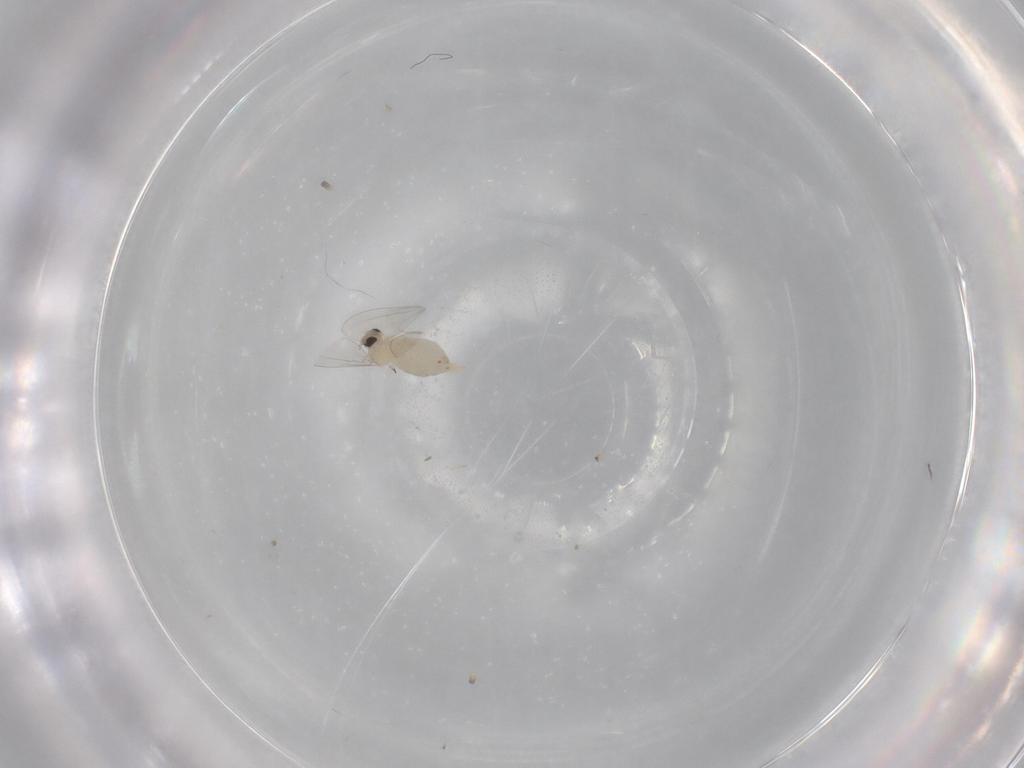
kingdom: Animalia
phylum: Arthropoda
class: Insecta
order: Diptera
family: Cecidomyiidae
